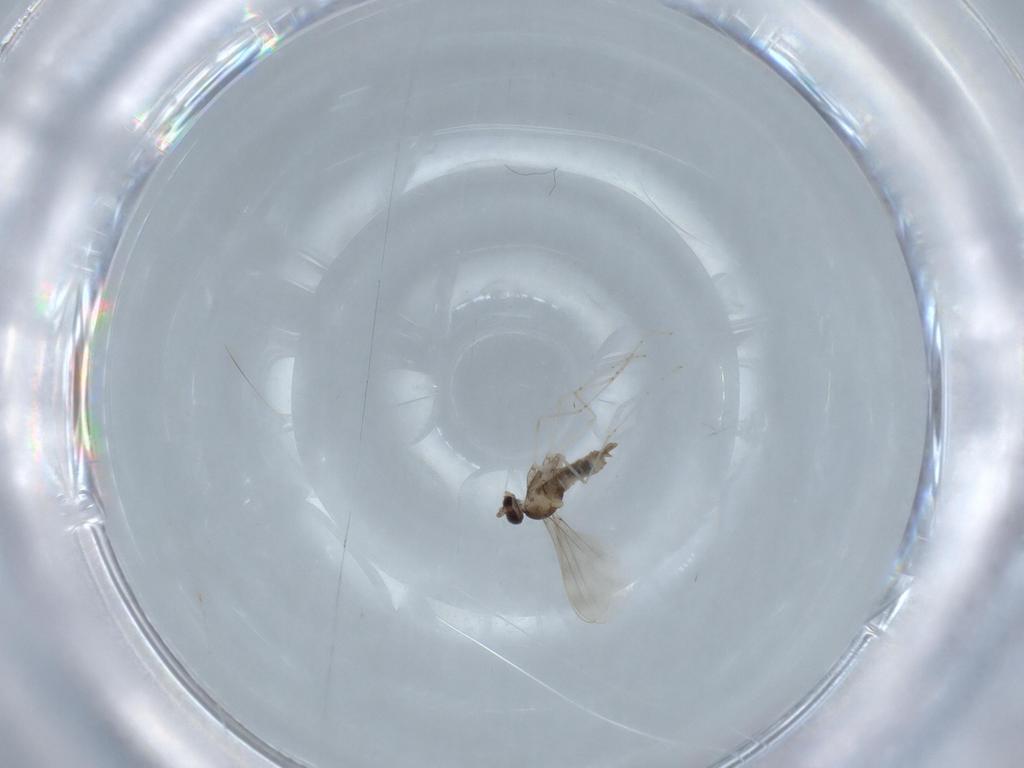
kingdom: Animalia
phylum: Arthropoda
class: Insecta
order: Diptera
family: Cecidomyiidae
